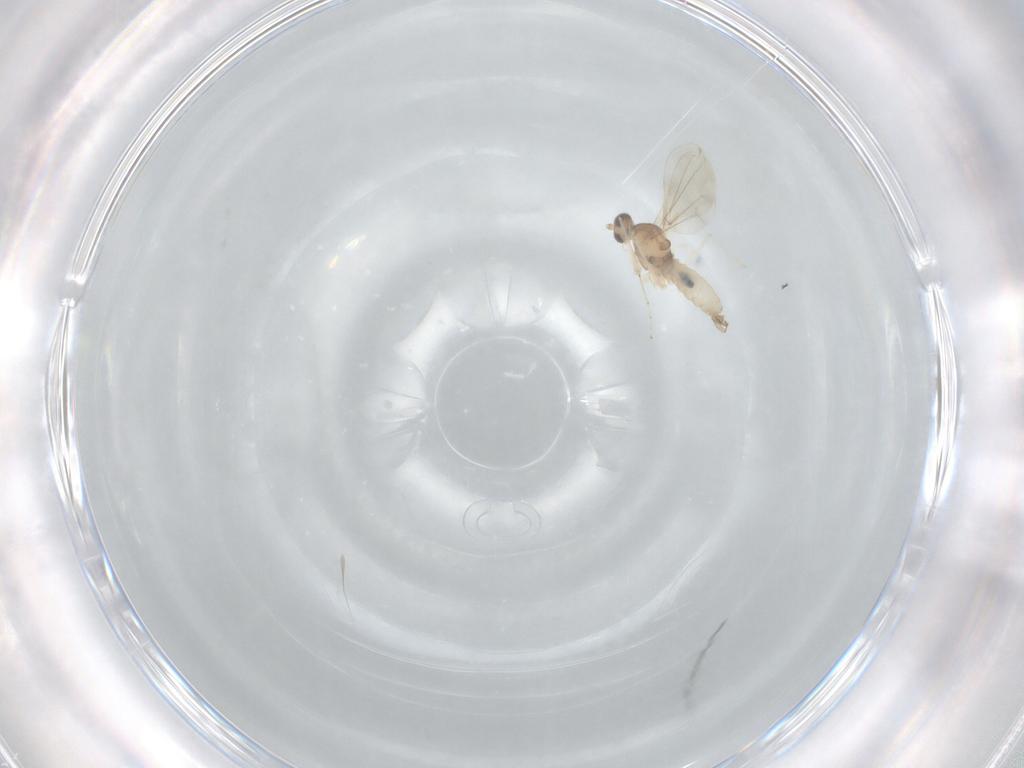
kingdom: Animalia
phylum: Arthropoda
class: Insecta
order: Diptera
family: Cecidomyiidae
